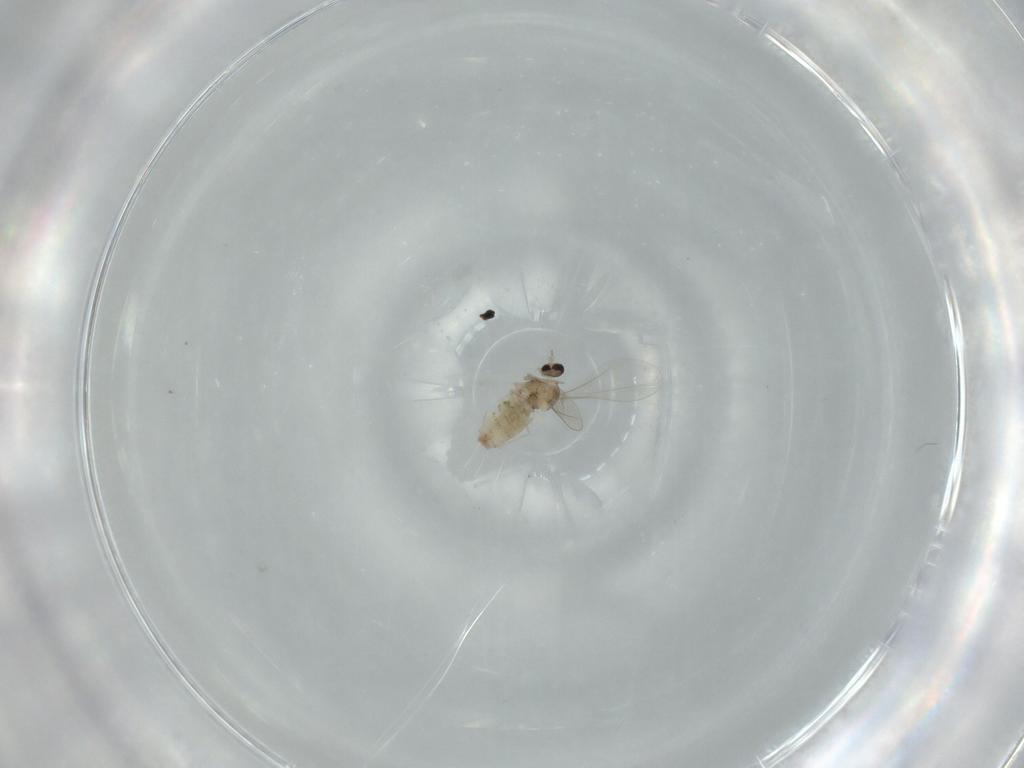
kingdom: Animalia
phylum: Arthropoda
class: Insecta
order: Diptera
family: Cecidomyiidae
